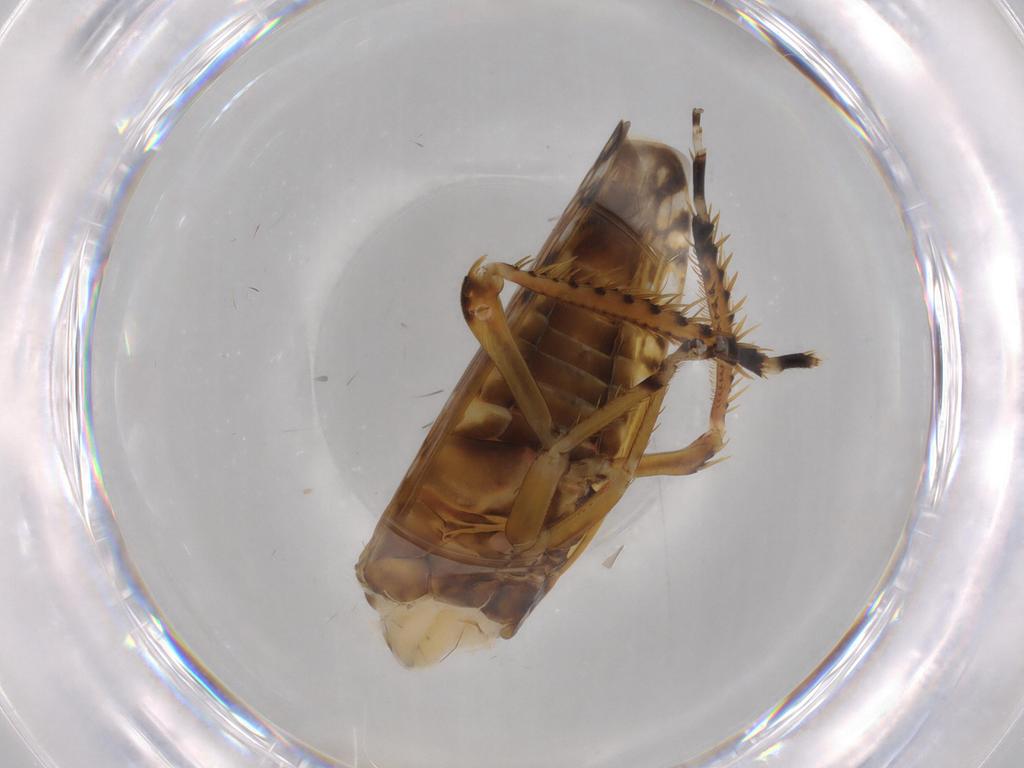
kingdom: Animalia
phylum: Arthropoda
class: Insecta
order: Hemiptera
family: Cicadellidae
